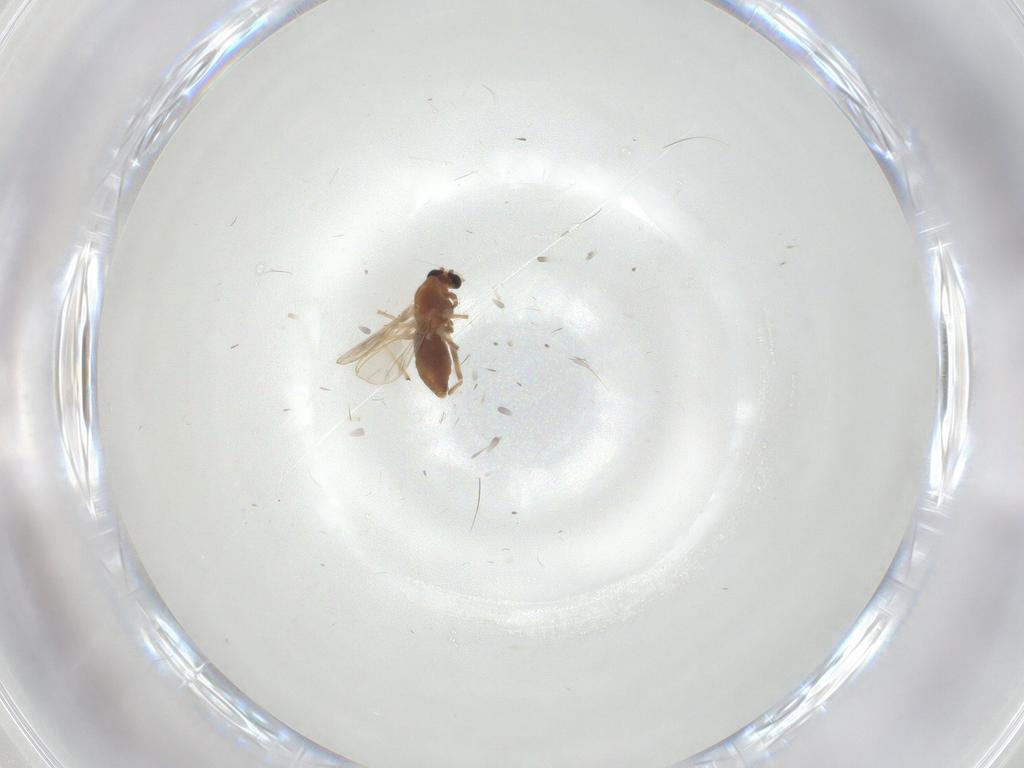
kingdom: Animalia
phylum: Arthropoda
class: Insecta
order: Diptera
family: Chironomidae
